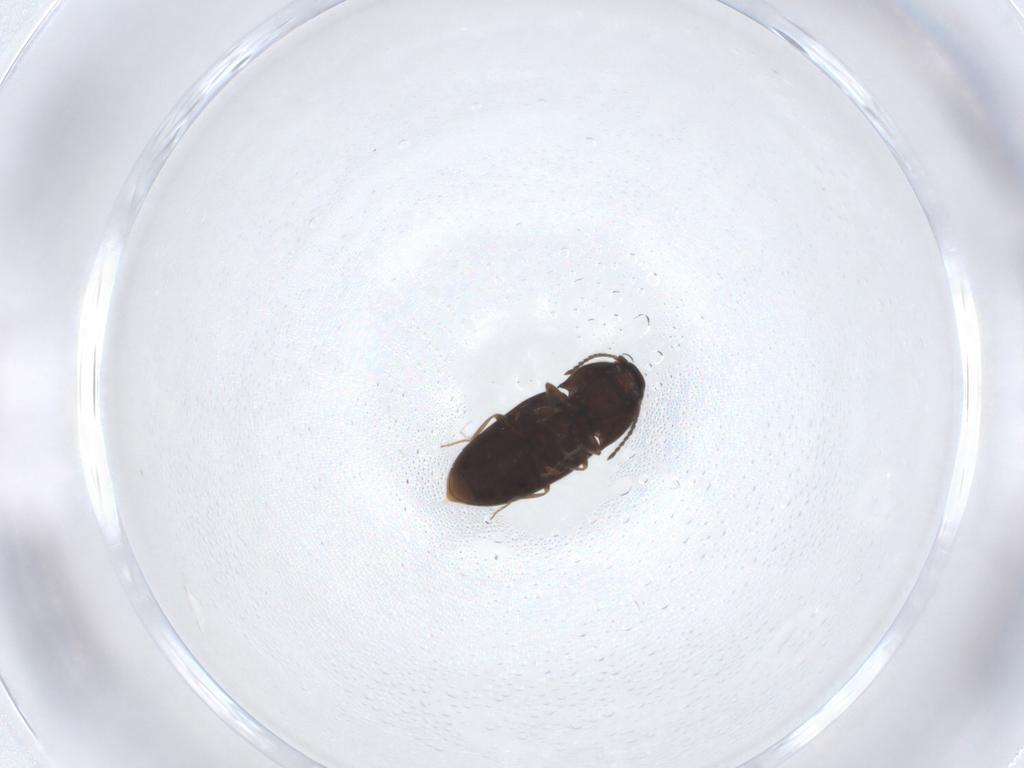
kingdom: Animalia
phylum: Arthropoda
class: Insecta
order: Coleoptera
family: Elateridae
